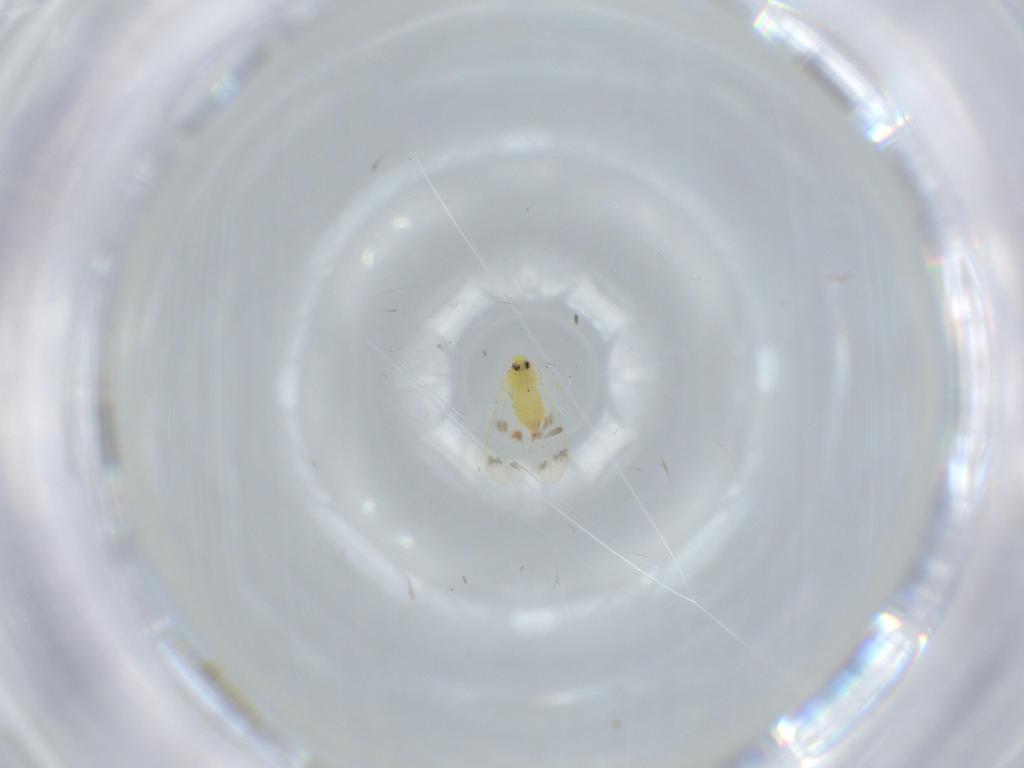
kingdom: Animalia
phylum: Arthropoda
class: Insecta
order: Hemiptera
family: Aleyrodidae
